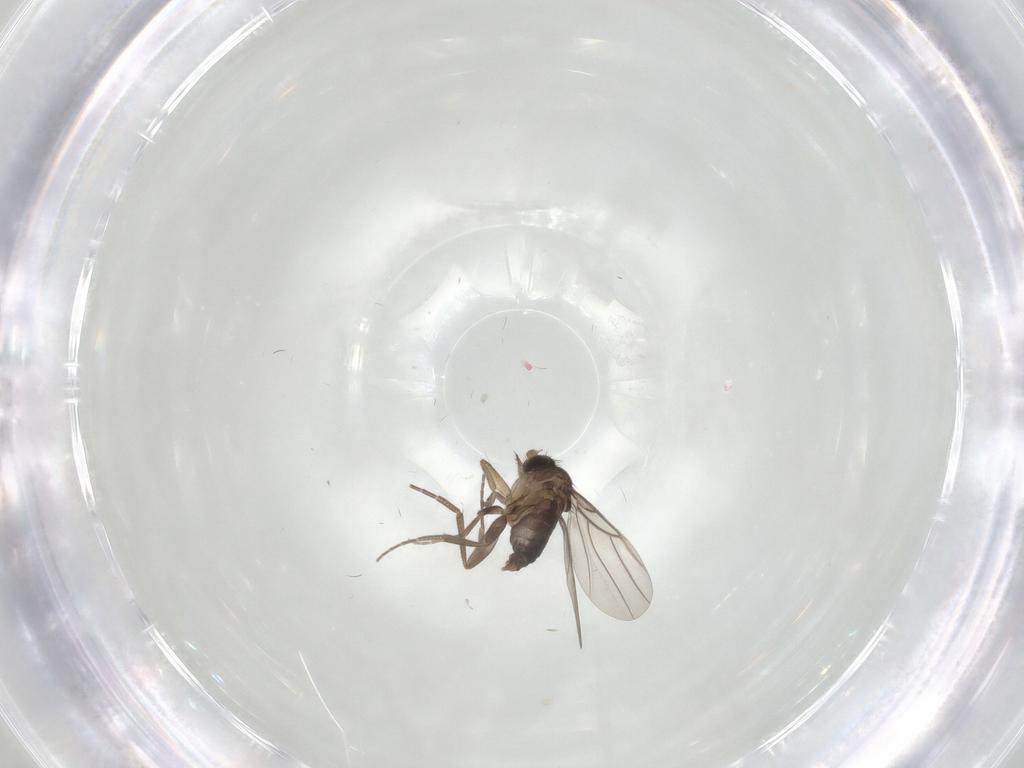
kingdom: Animalia
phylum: Arthropoda
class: Insecta
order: Diptera
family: Phoridae
